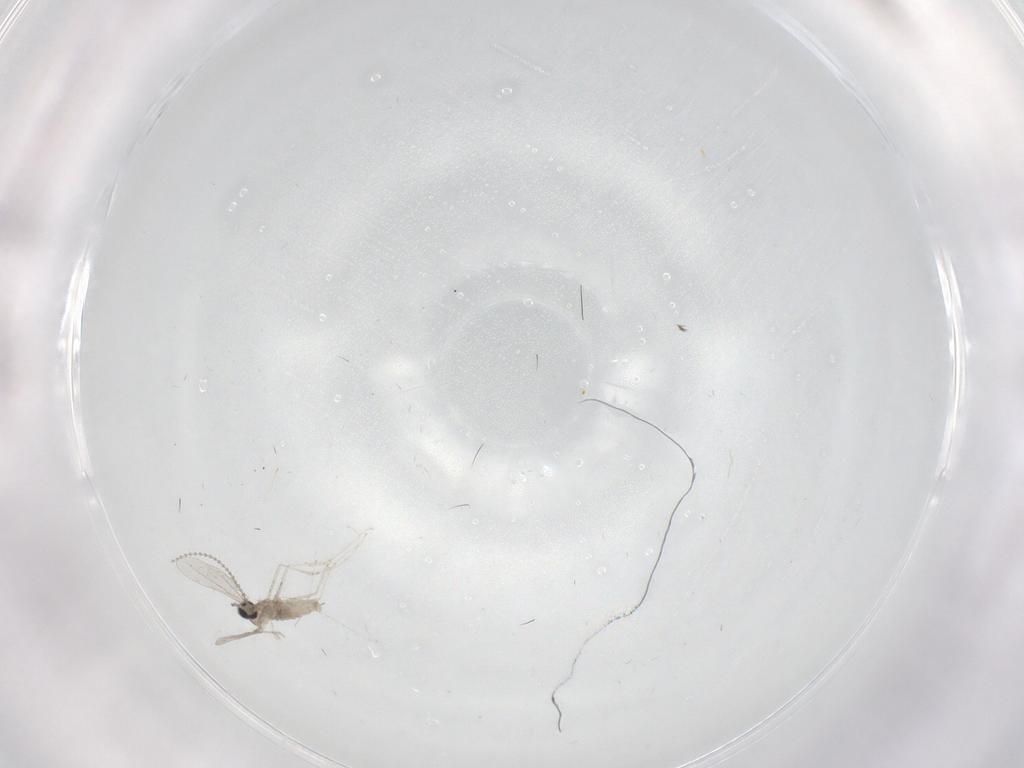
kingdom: Animalia
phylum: Arthropoda
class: Insecta
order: Diptera
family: Cecidomyiidae
